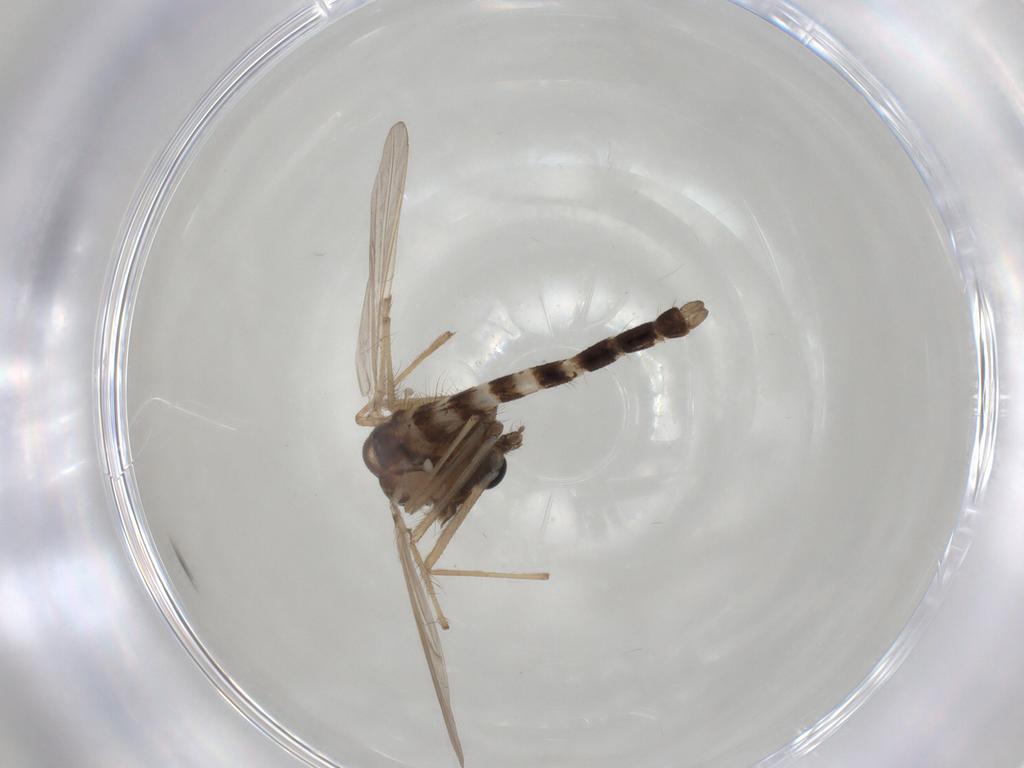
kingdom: Animalia
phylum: Arthropoda
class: Insecta
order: Diptera
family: Chironomidae
